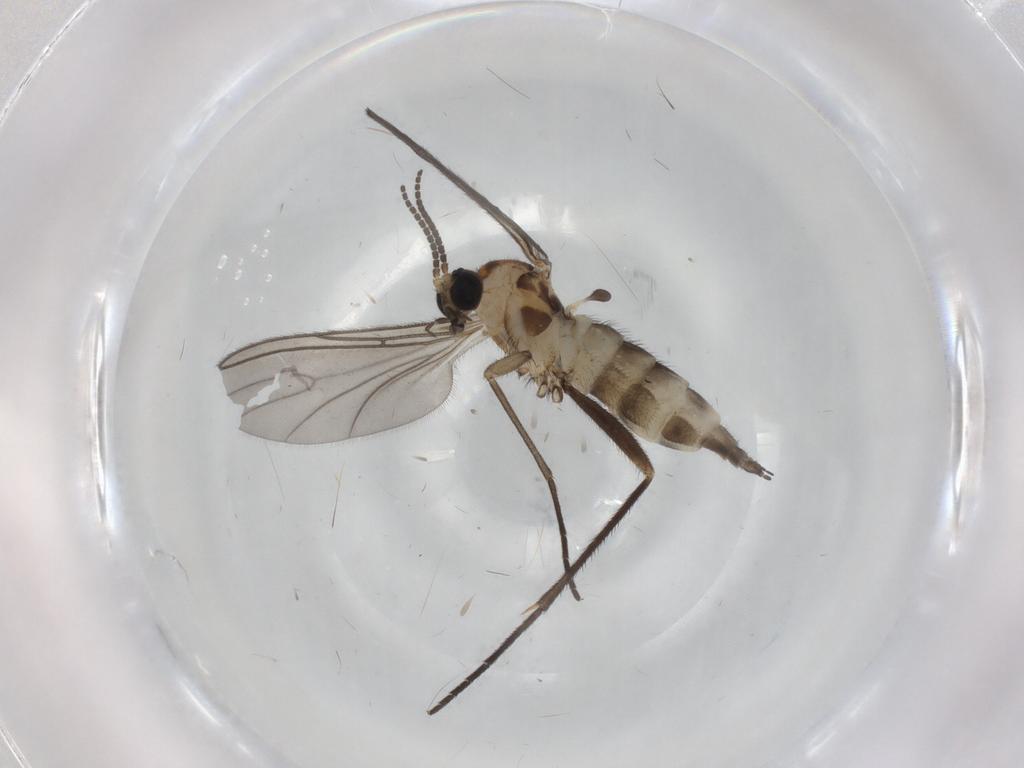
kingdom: Animalia
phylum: Arthropoda
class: Insecta
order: Diptera
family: Sciaridae
